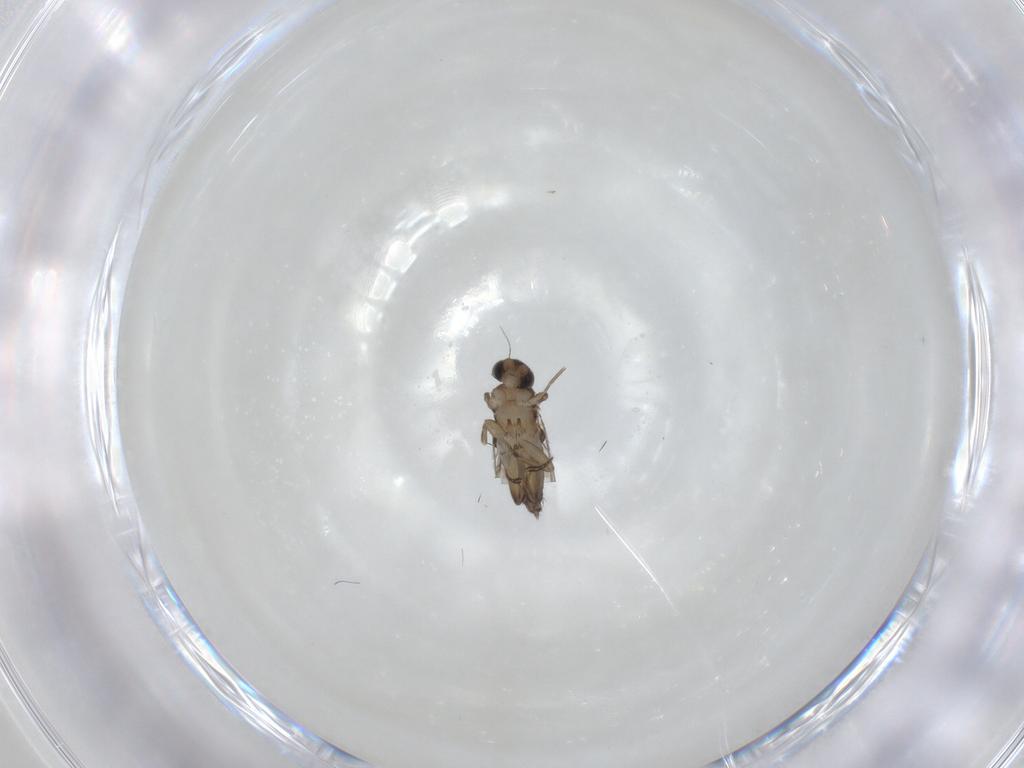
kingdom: Animalia
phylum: Arthropoda
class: Insecta
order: Diptera
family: Phoridae
